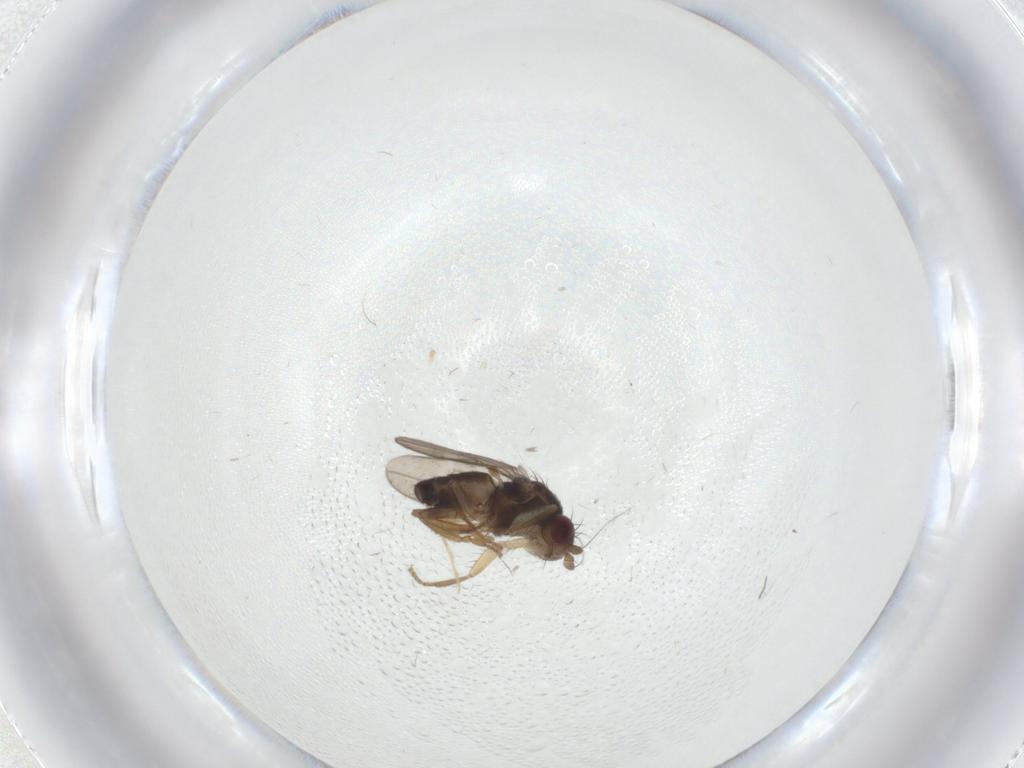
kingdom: Animalia
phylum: Arthropoda
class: Insecta
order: Diptera
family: Sphaeroceridae
